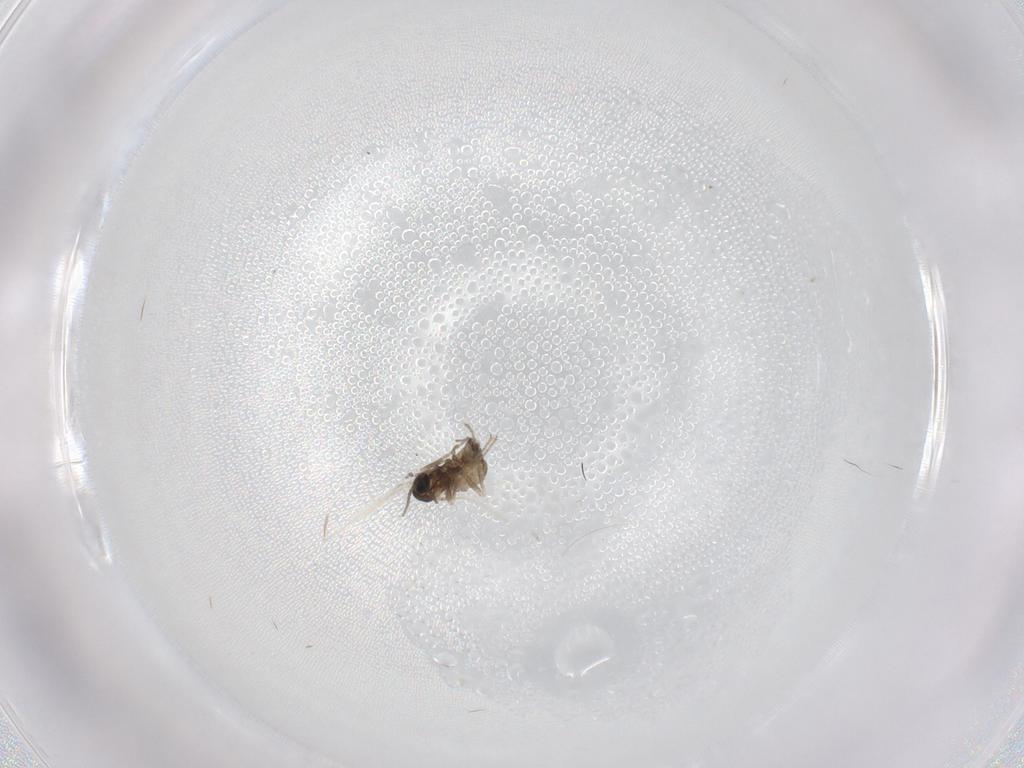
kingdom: Animalia
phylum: Arthropoda
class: Insecta
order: Diptera
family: Cecidomyiidae
